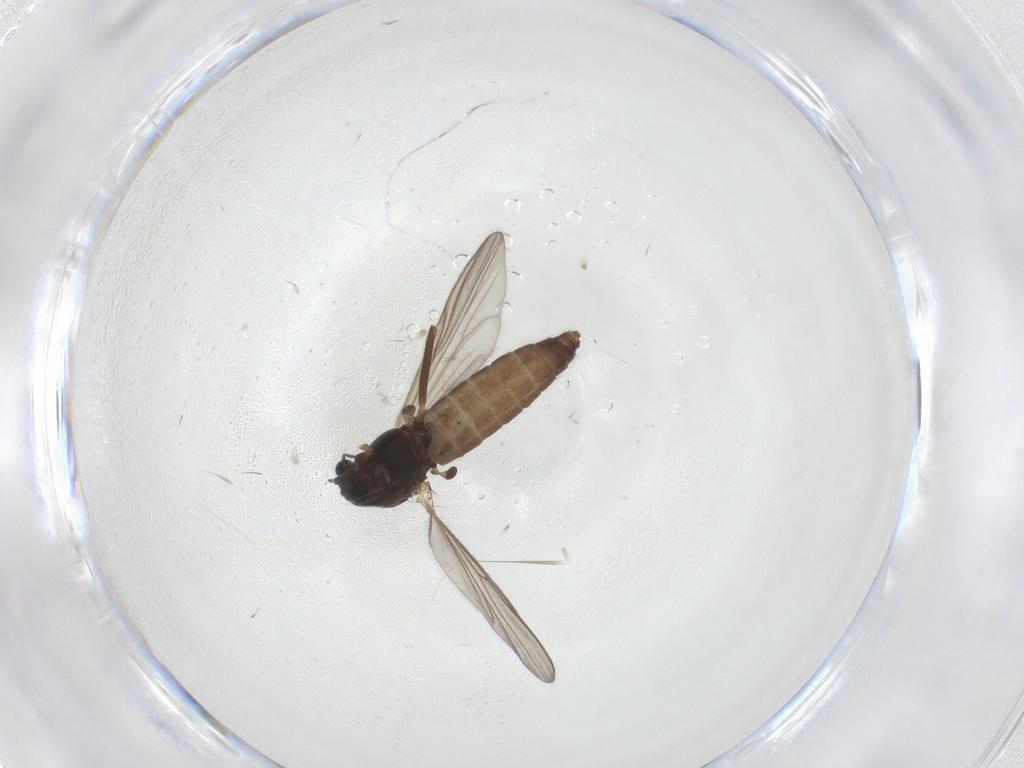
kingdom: Animalia
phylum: Arthropoda
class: Insecta
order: Diptera
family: Chironomidae
